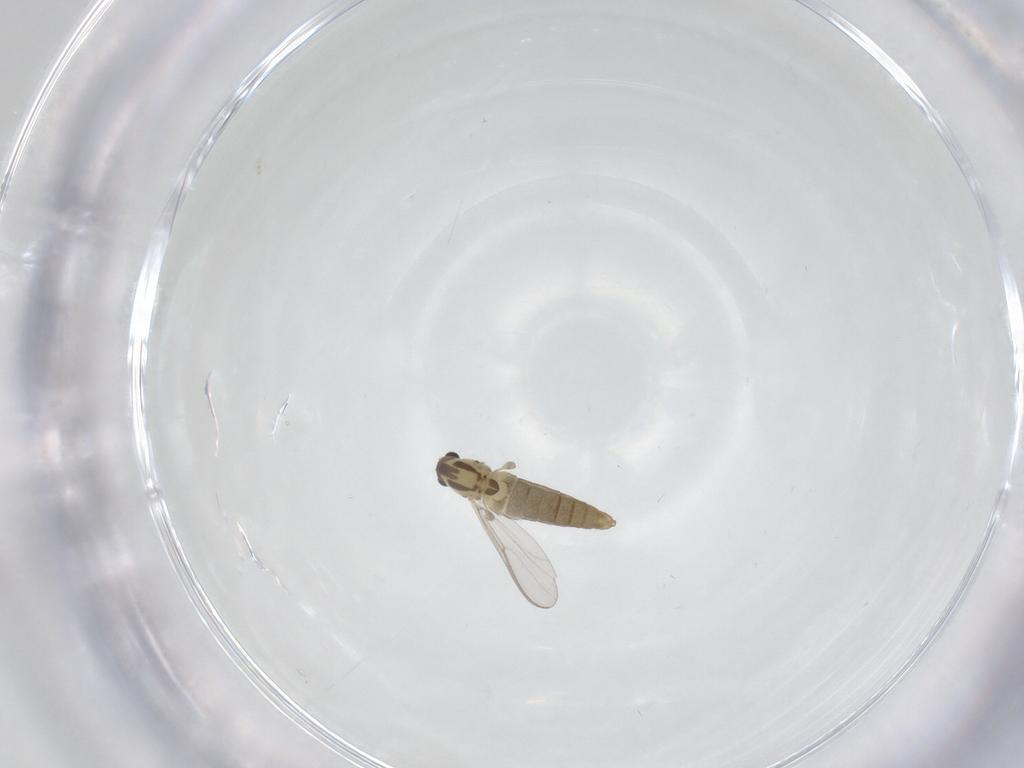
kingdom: Animalia
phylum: Arthropoda
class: Insecta
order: Diptera
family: Chironomidae
